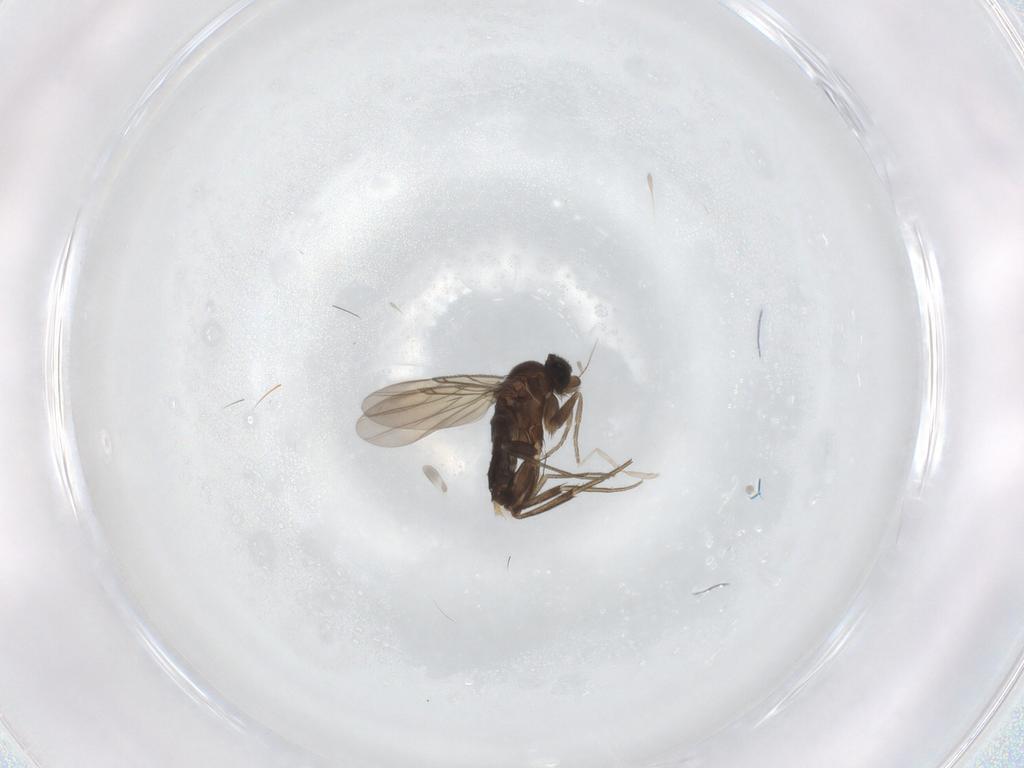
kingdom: Animalia
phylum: Arthropoda
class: Insecta
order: Diptera
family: Phoridae
